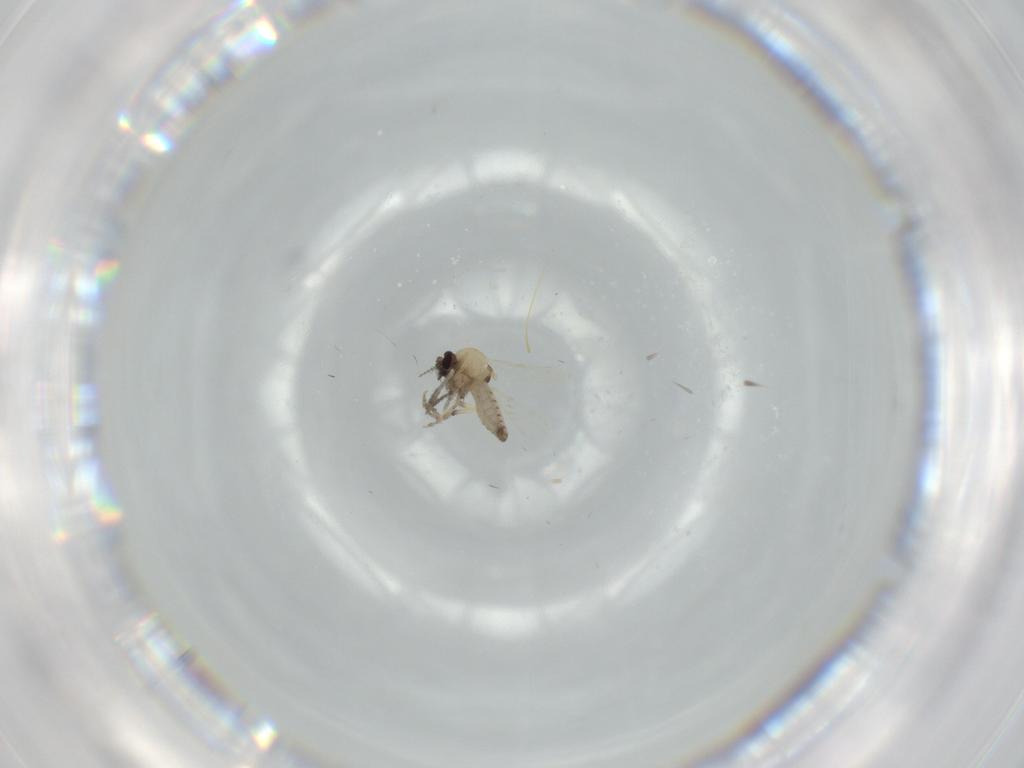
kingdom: Animalia
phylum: Arthropoda
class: Insecta
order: Diptera
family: Ceratopogonidae
